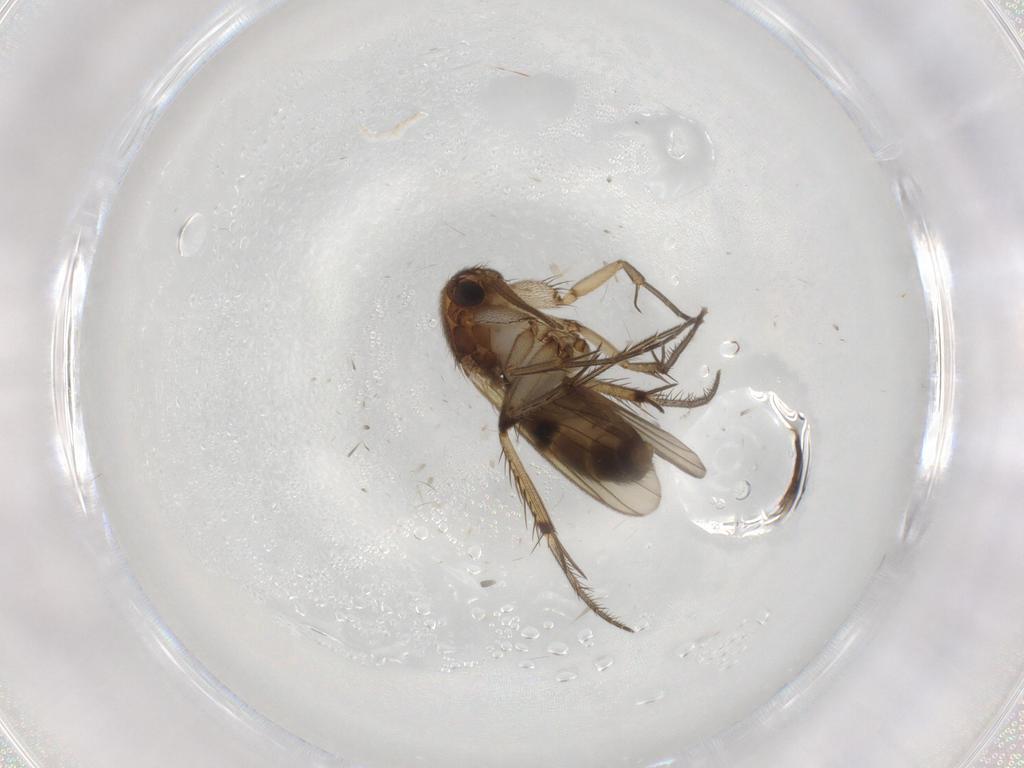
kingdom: Animalia
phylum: Arthropoda
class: Insecta
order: Diptera
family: Mycetophilidae
